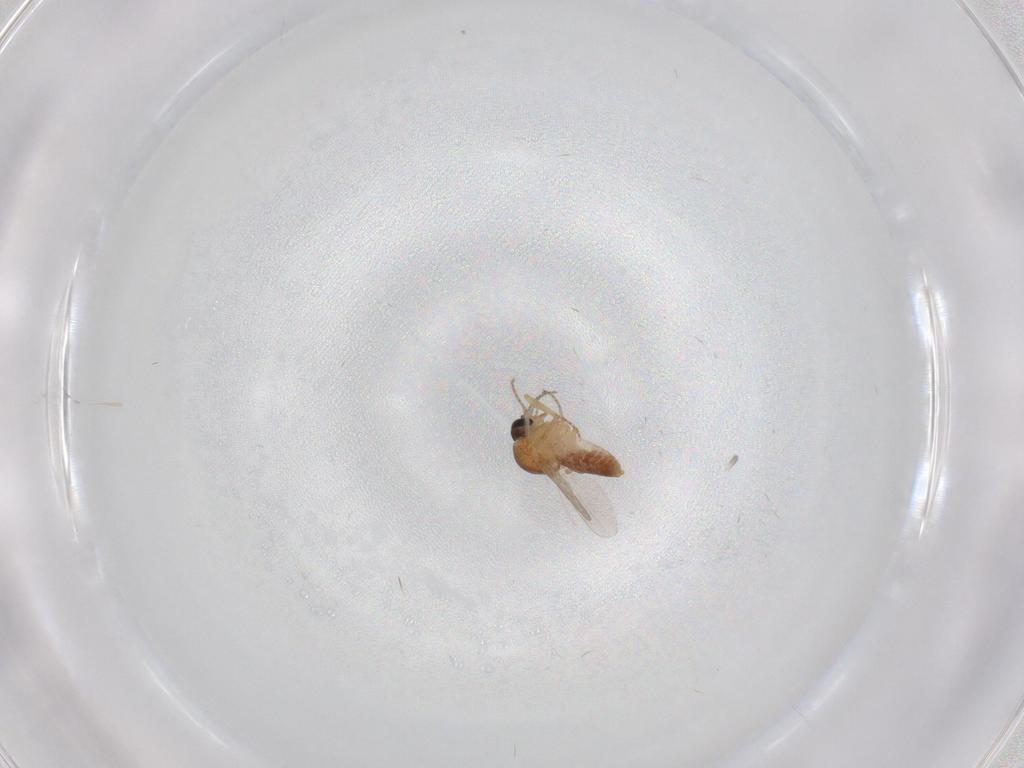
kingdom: Animalia
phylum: Arthropoda
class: Insecta
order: Diptera
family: Ceratopogonidae
